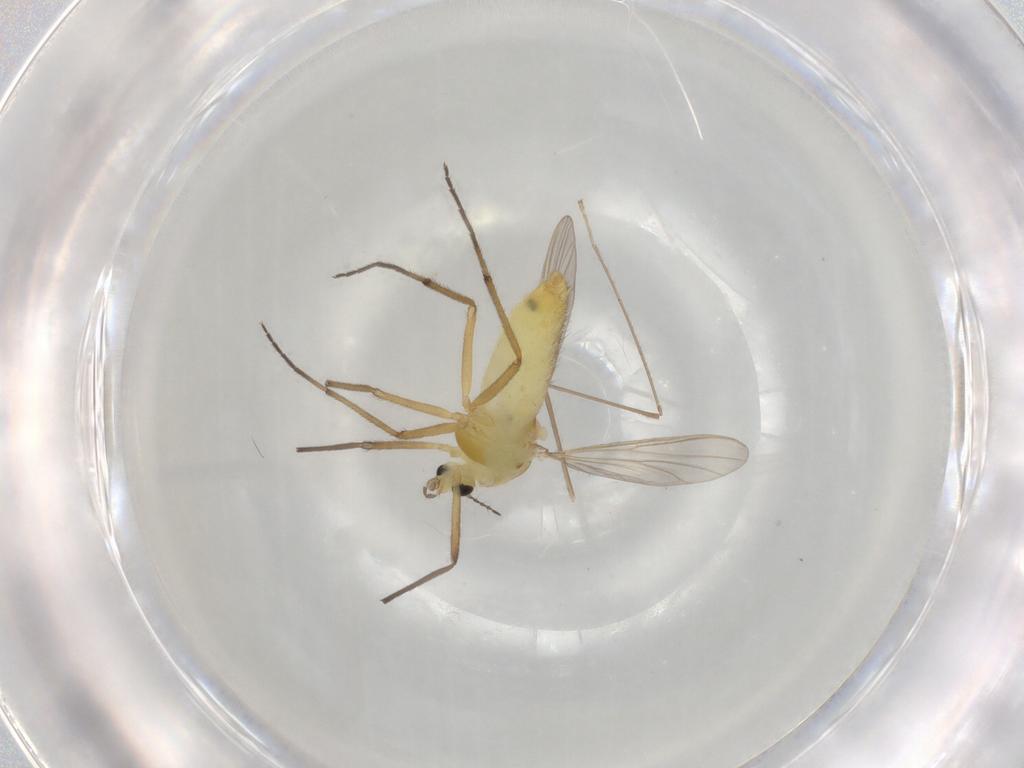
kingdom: Animalia
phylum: Arthropoda
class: Insecta
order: Diptera
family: Chironomidae
